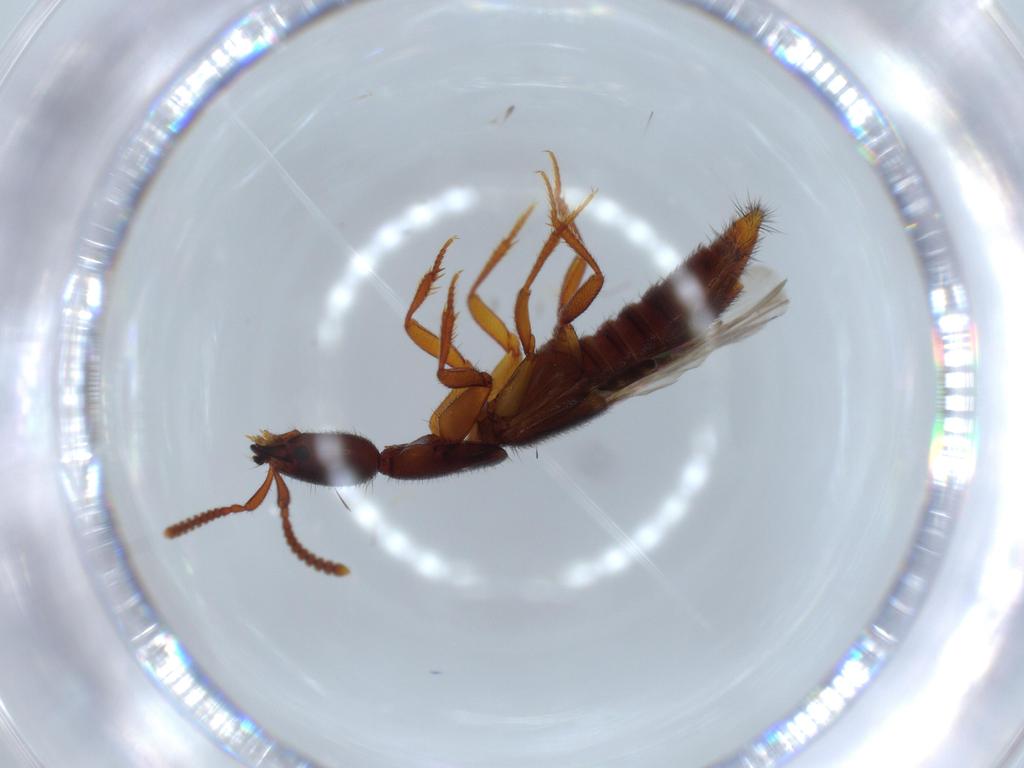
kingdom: Animalia
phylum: Arthropoda
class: Insecta
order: Coleoptera
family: Staphylinidae
